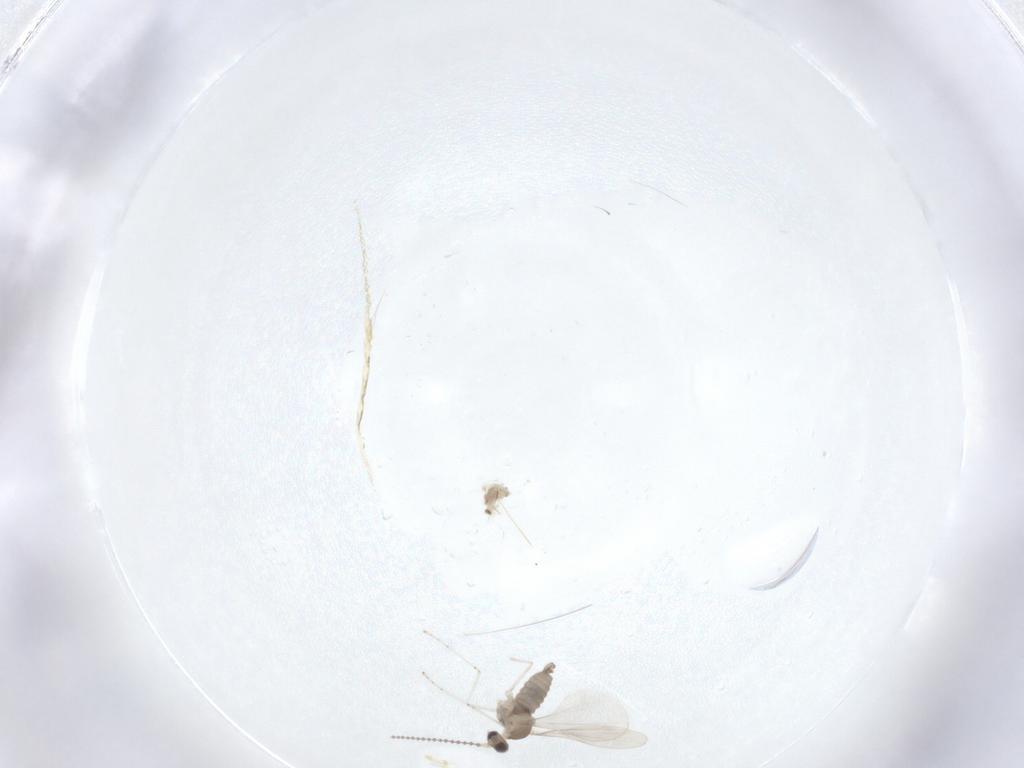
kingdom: Animalia
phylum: Arthropoda
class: Insecta
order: Diptera
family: Cecidomyiidae
